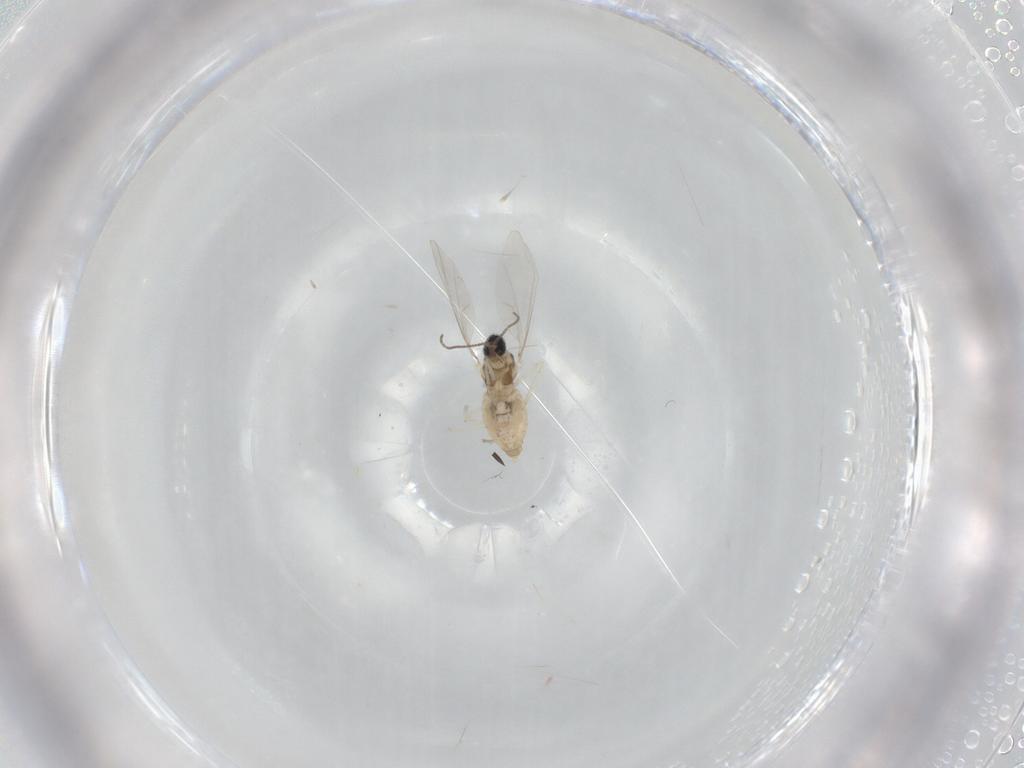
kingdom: Animalia
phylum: Arthropoda
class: Insecta
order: Diptera
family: Cecidomyiidae
